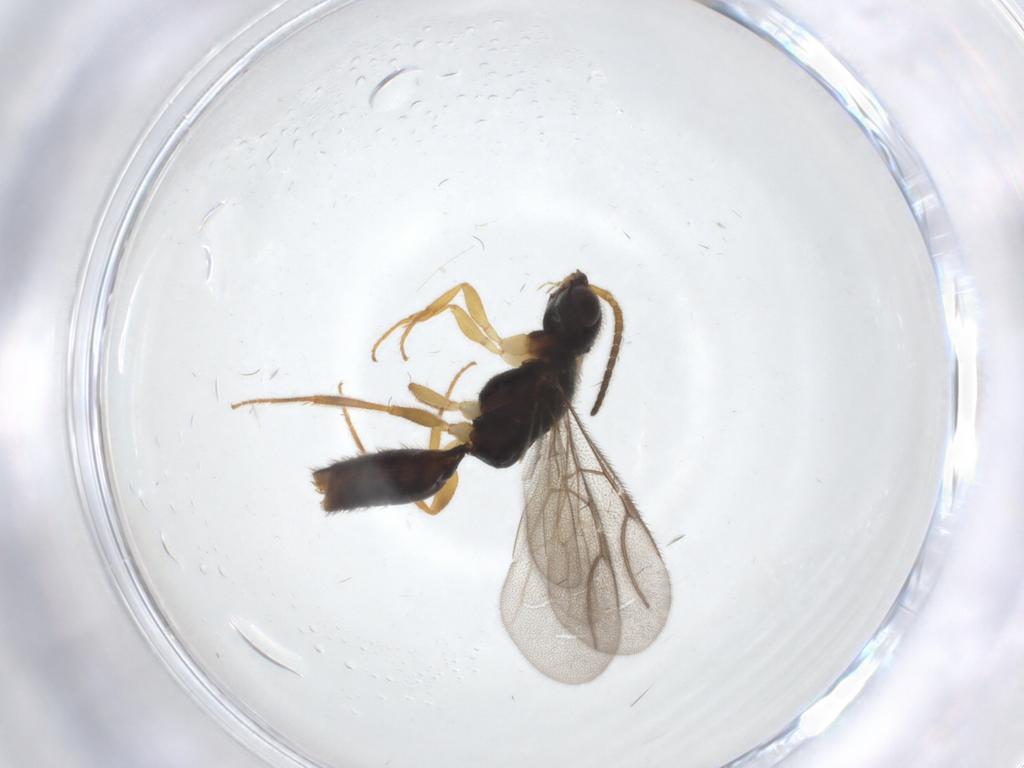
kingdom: Animalia
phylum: Arthropoda
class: Insecta
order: Hymenoptera
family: Bethylidae
